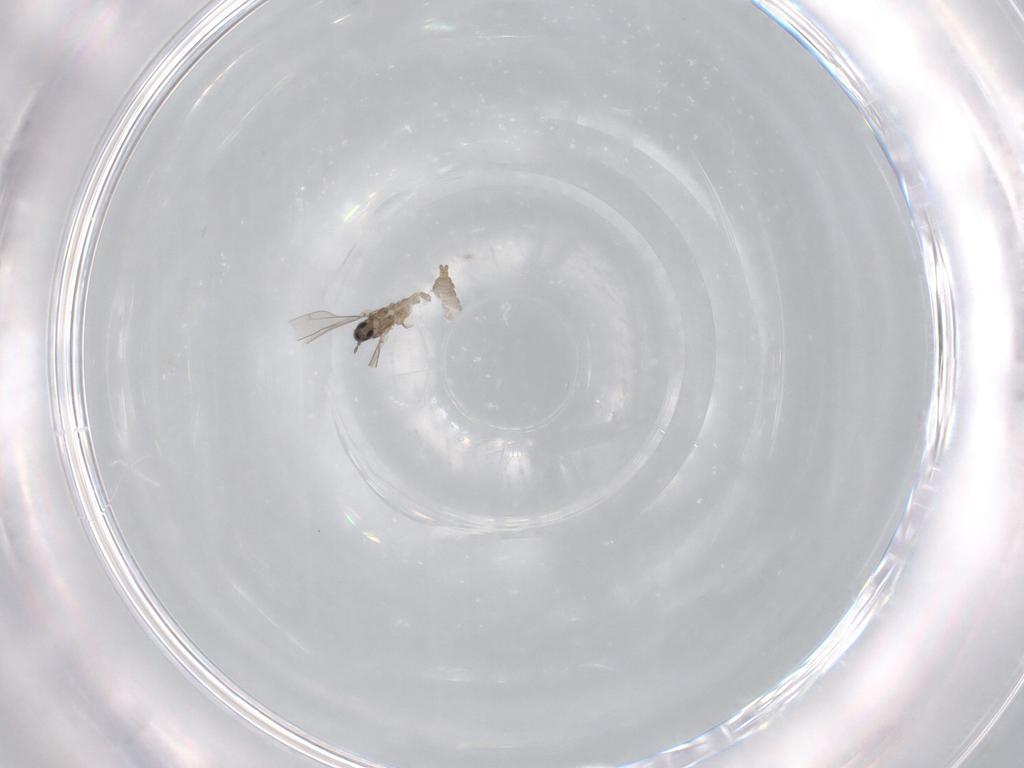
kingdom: Animalia
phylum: Arthropoda
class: Insecta
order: Diptera
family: Cecidomyiidae
